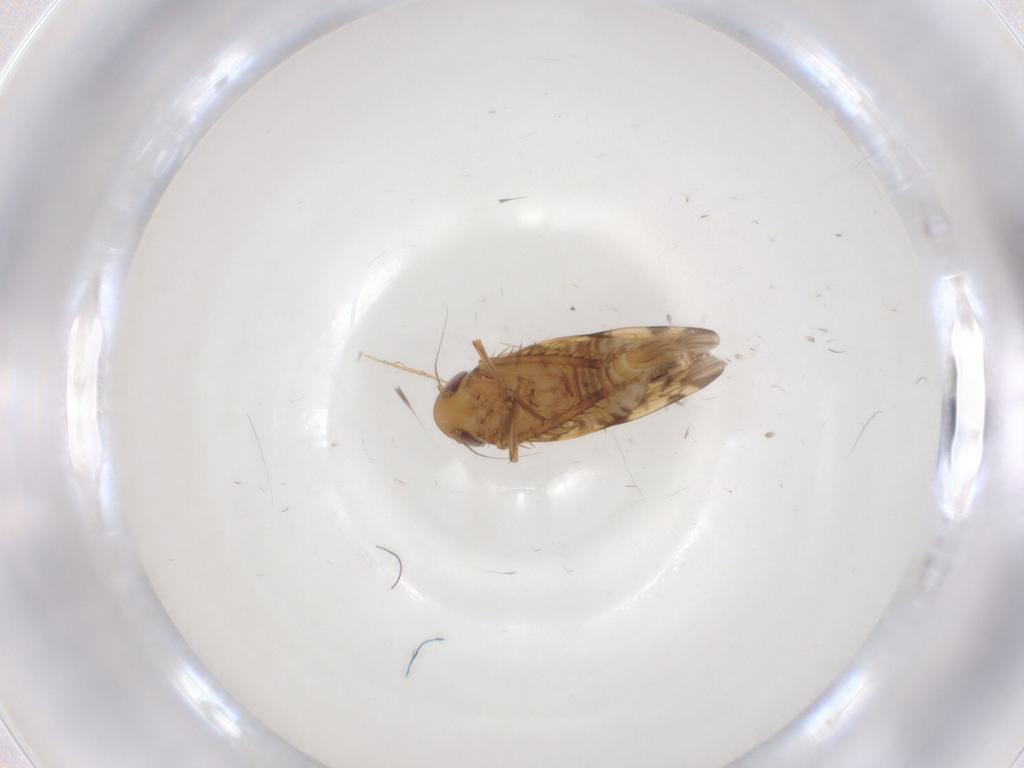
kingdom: Animalia
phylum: Arthropoda
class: Insecta
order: Hemiptera
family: Cicadellidae
